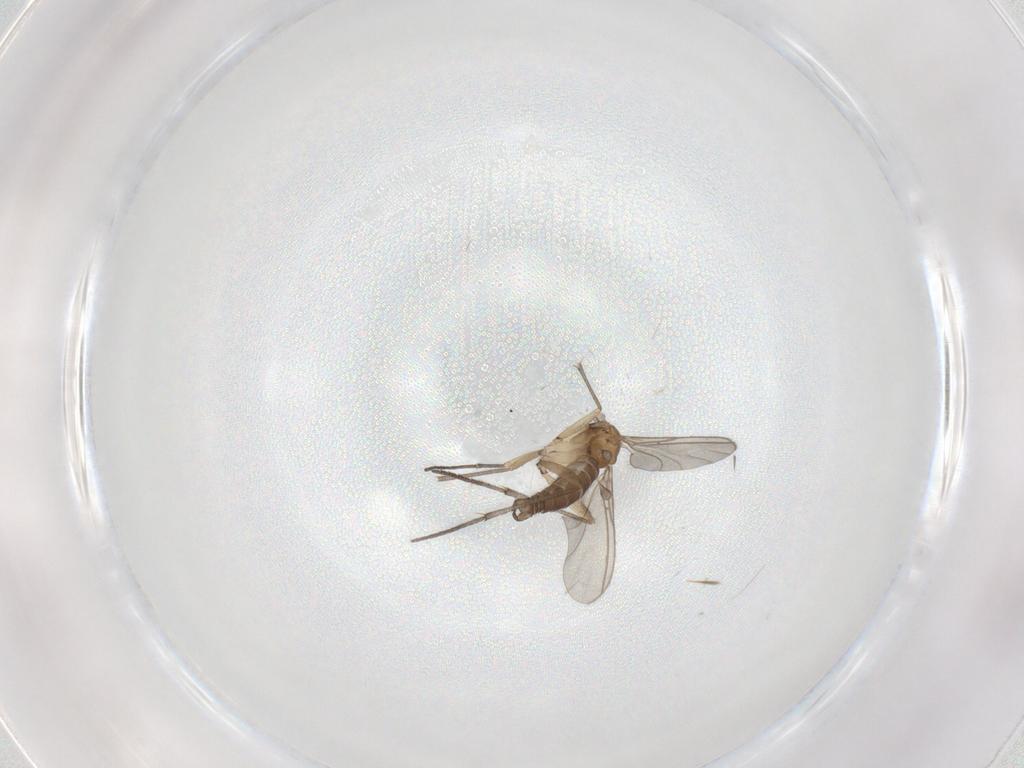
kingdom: Animalia
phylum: Arthropoda
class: Insecta
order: Diptera
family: Sciaridae
